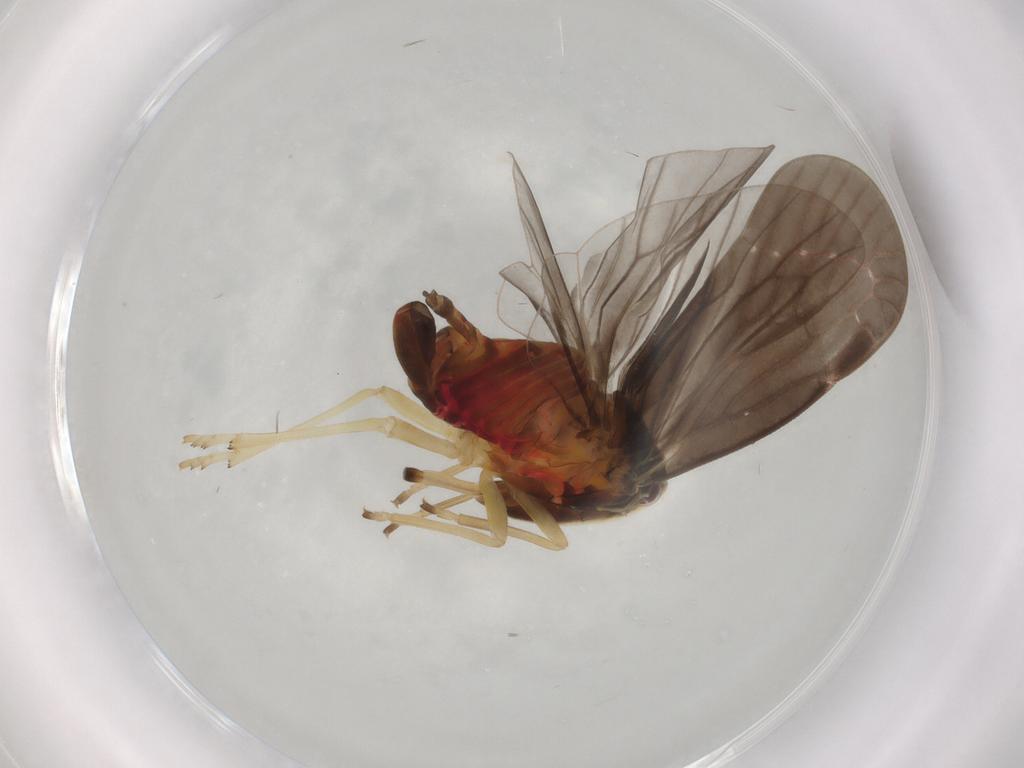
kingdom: Animalia
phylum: Arthropoda
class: Insecta
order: Hemiptera
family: Derbidae
